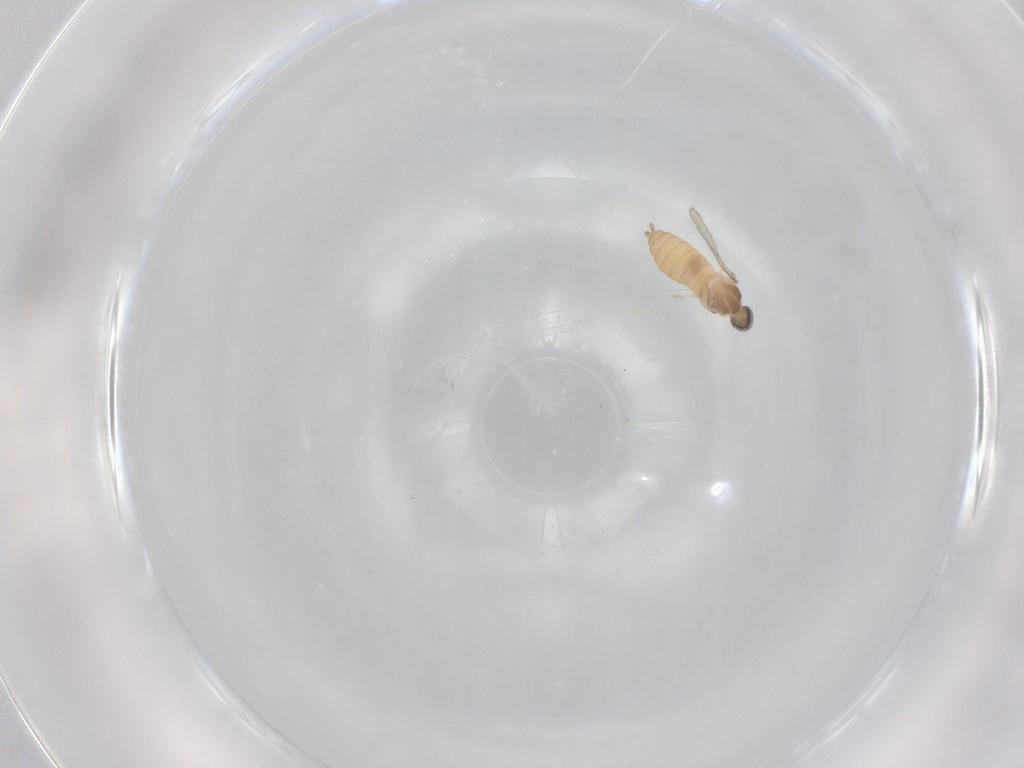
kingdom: Animalia
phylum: Arthropoda
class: Insecta
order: Diptera
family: Cecidomyiidae
